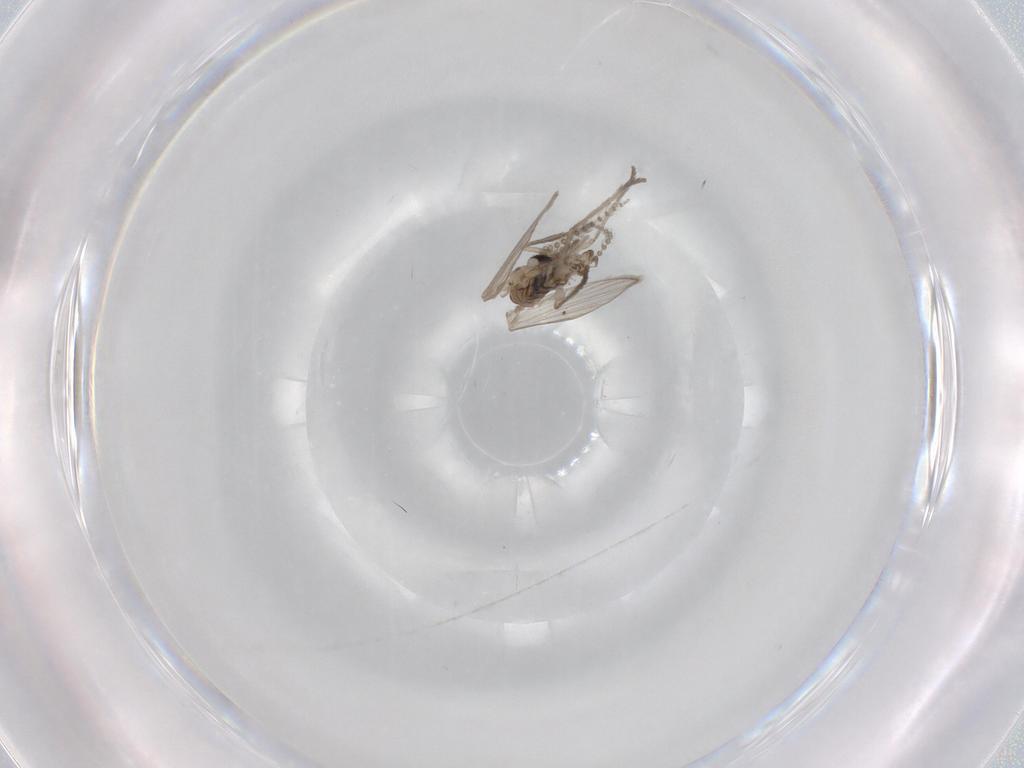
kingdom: Animalia
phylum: Arthropoda
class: Insecta
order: Diptera
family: Psychodidae
